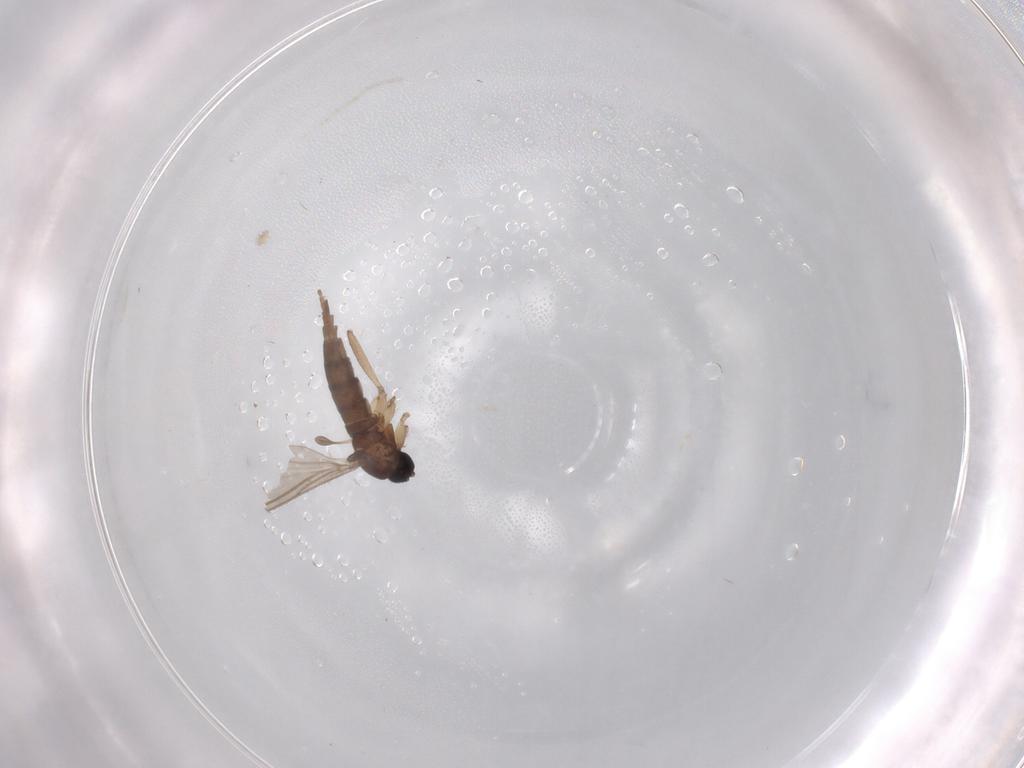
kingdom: Animalia
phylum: Arthropoda
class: Insecta
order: Diptera
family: Sciaridae
